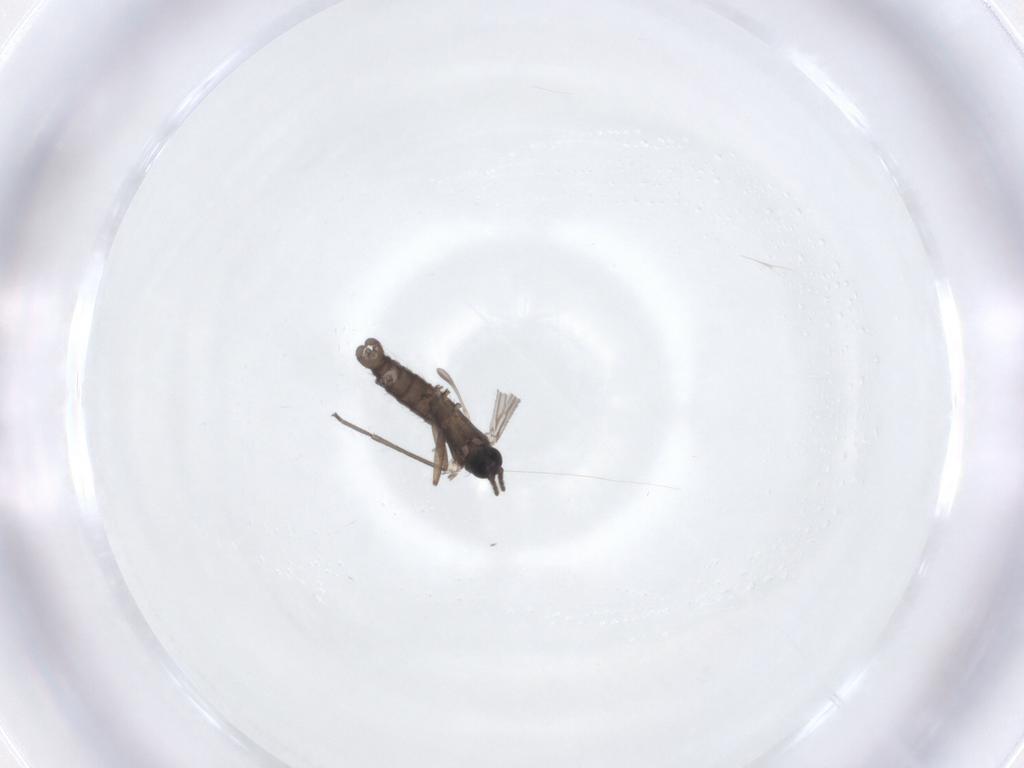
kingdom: Animalia
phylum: Arthropoda
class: Insecta
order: Diptera
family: Sciaridae
